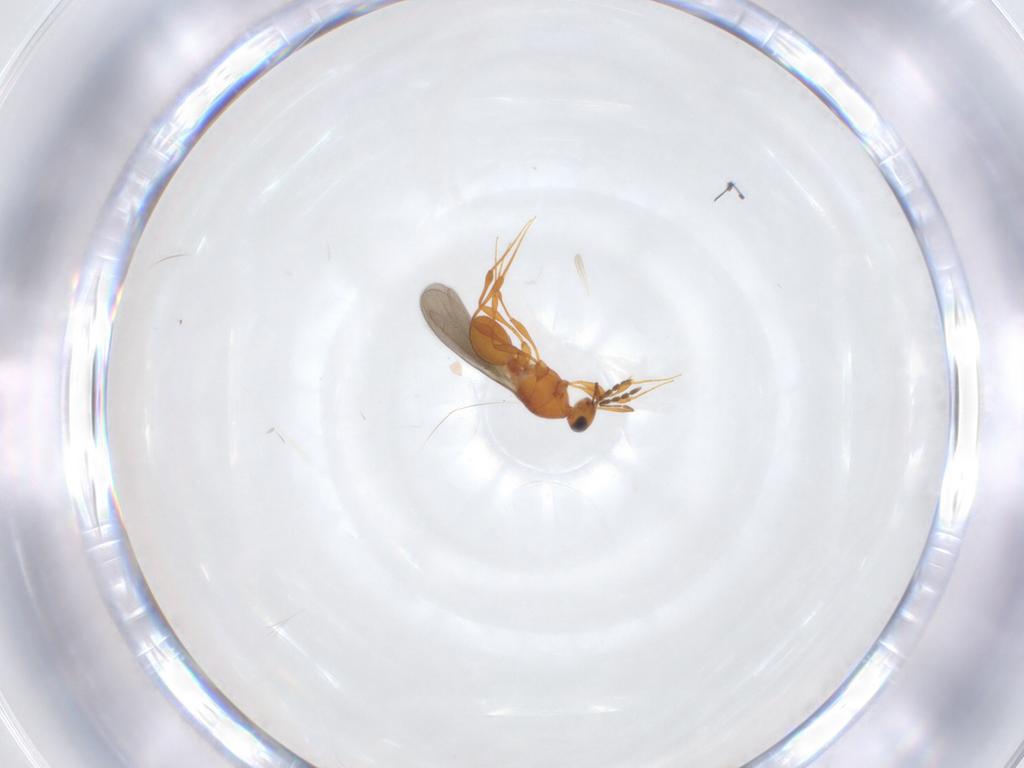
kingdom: Animalia
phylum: Arthropoda
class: Insecta
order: Hymenoptera
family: Platygastridae
